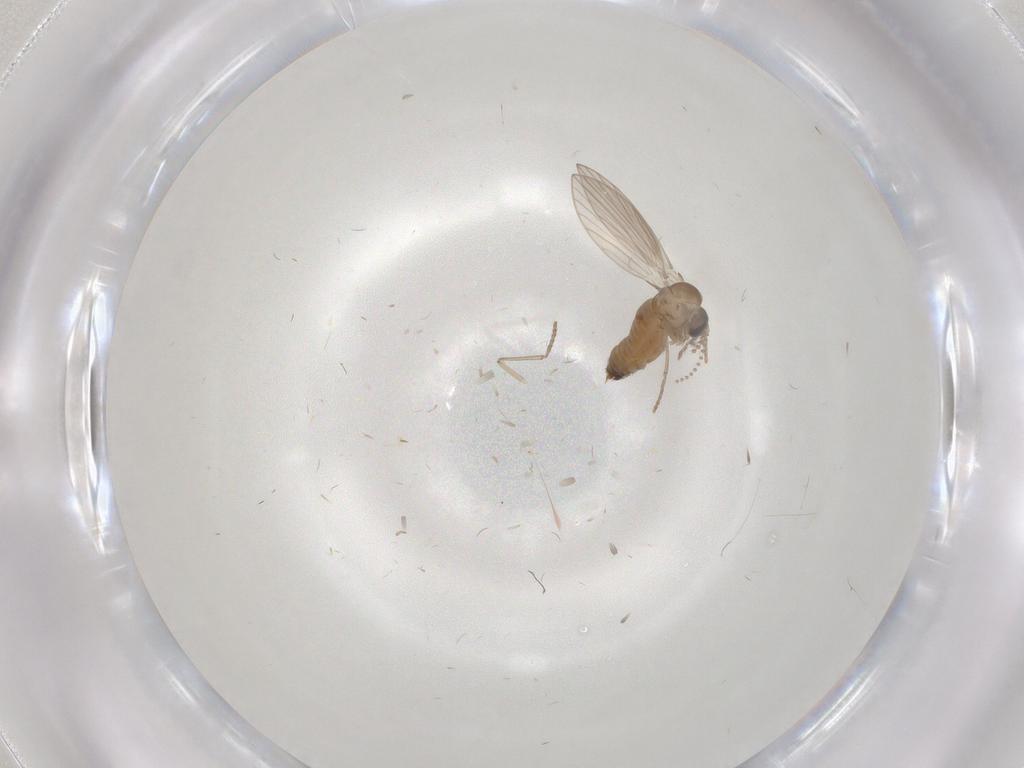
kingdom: Animalia
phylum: Arthropoda
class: Insecta
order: Diptera
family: Psychodidae
